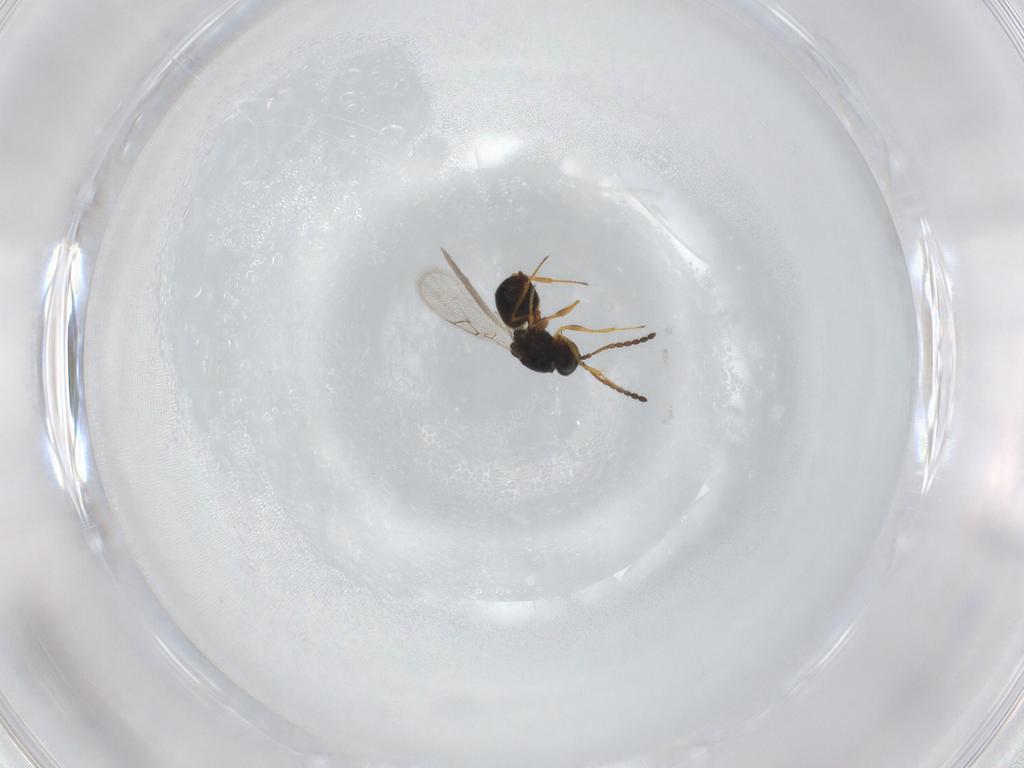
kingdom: Animalia
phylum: Arthropoda
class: Insecta
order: Hymenoptera
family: Figitidae
